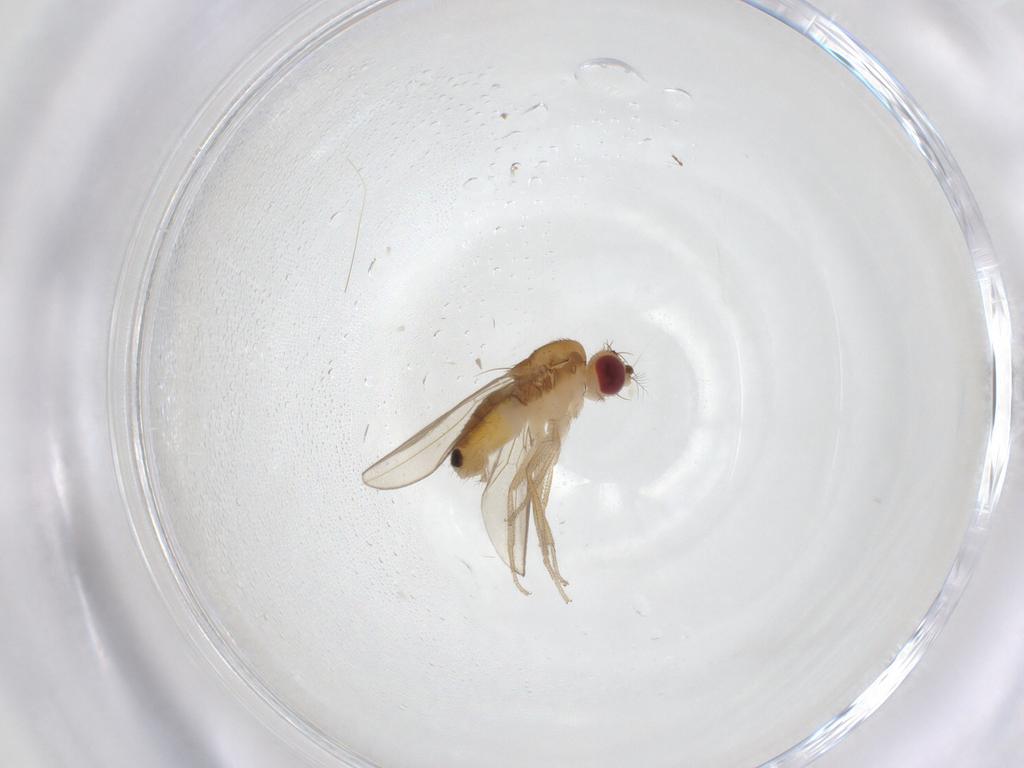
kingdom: Animalia
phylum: Arthropoda
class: Insecta
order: Diptera
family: Drosophilidae
